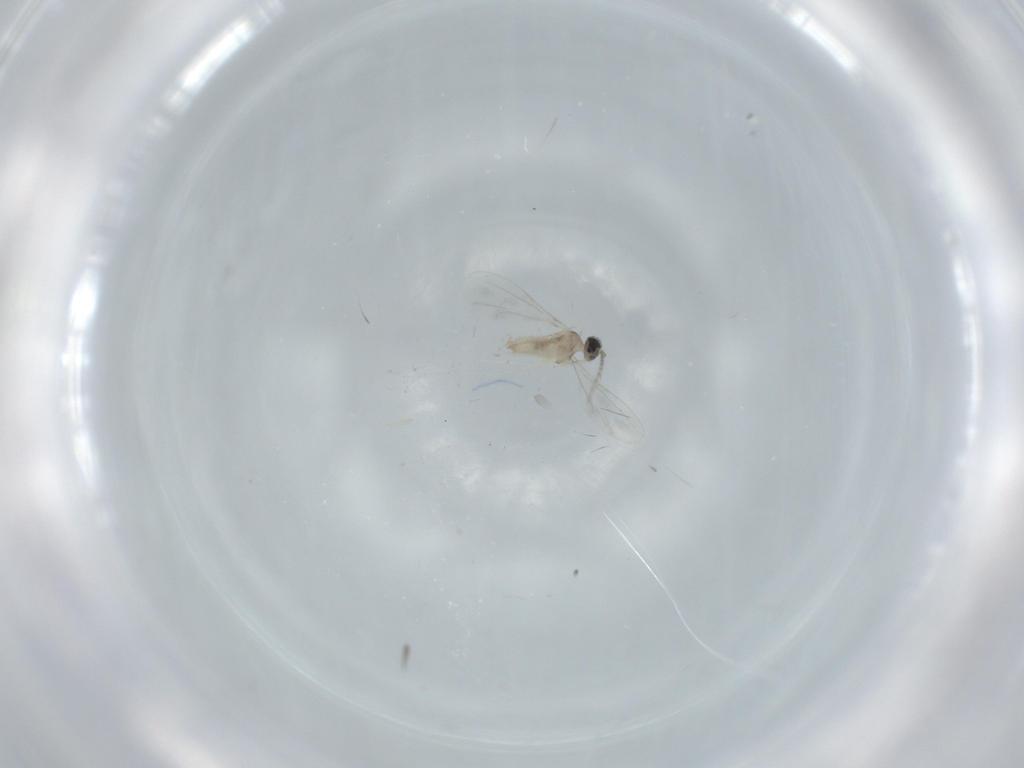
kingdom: Animalia
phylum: Arthropoda
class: Insecta
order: Diptera
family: Cecidomyiidae
